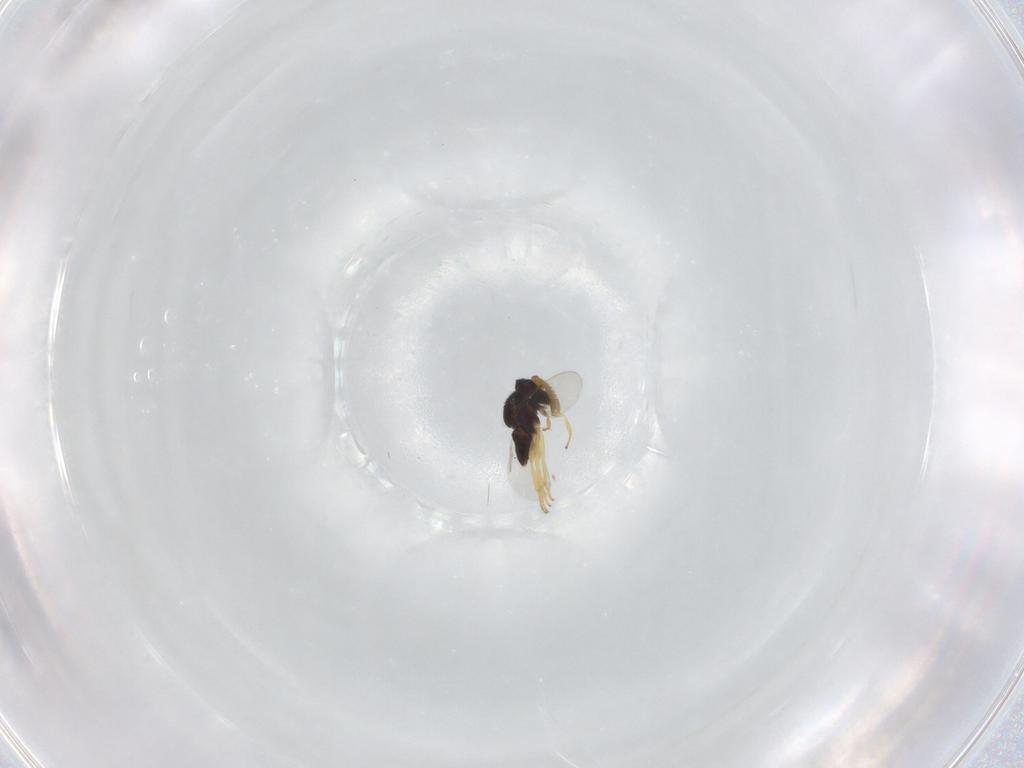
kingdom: Animalia
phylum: Arthropoda
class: Insecta
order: Hymenoptera
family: Encyrtidae
